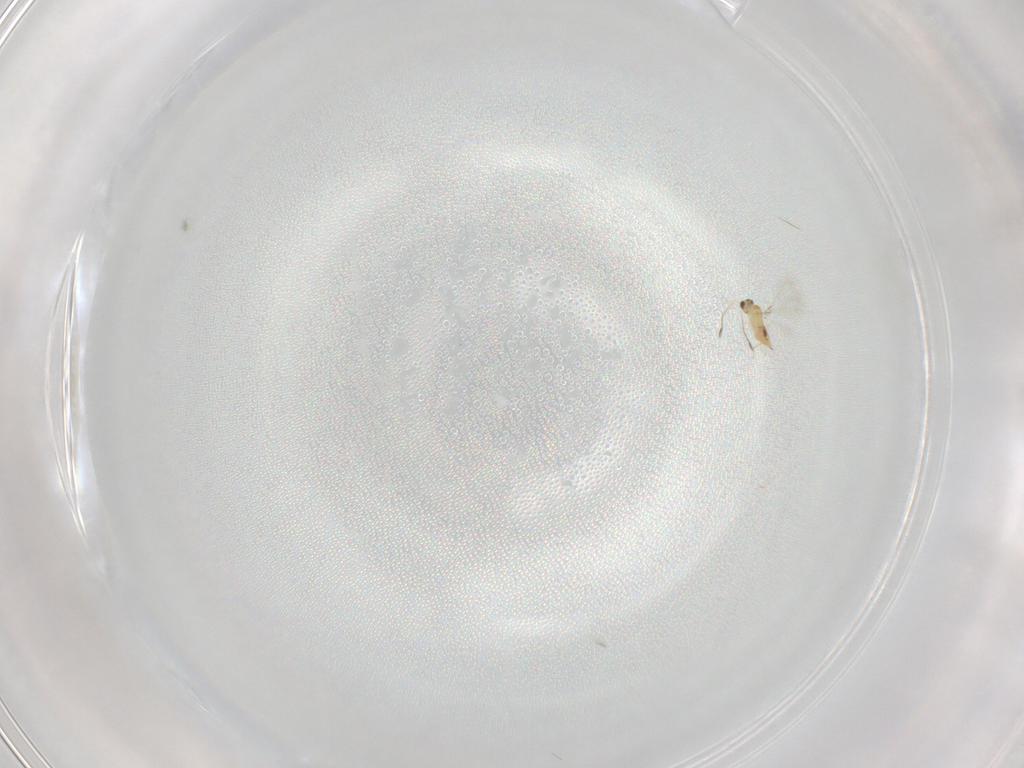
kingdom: Animalia
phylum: Arthropoda
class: Insecta
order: Hymenoptera
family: Mymaridae
